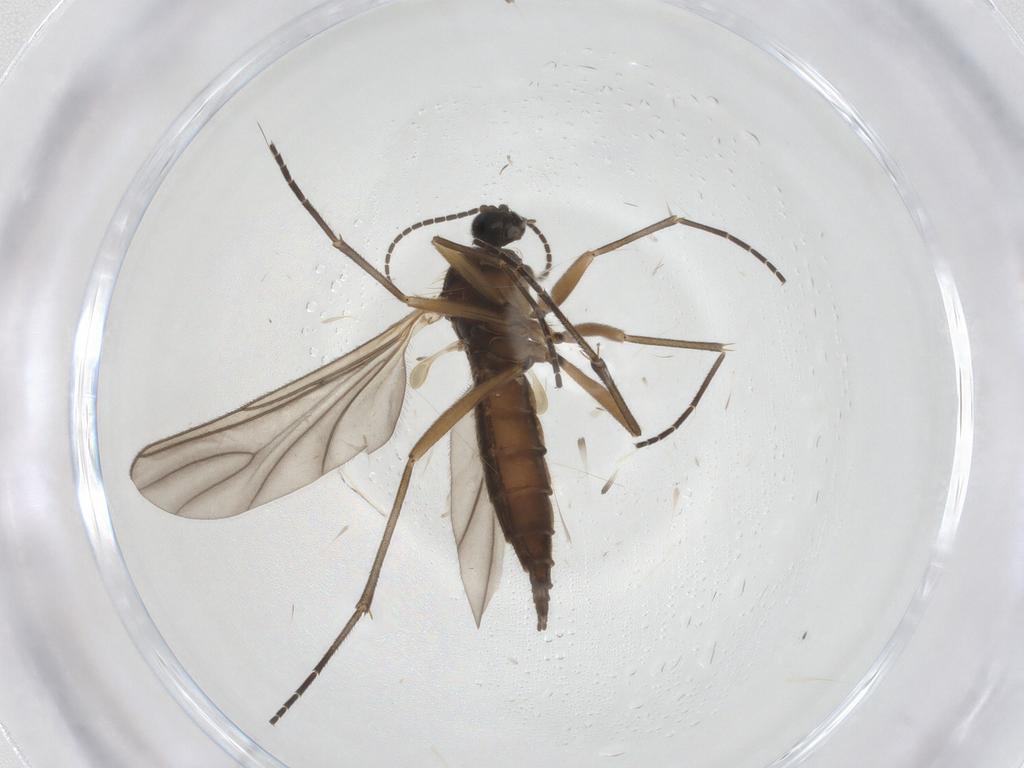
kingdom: Animalia
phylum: Arthropoda
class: Insecta
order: Diptera
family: Sciaridae
